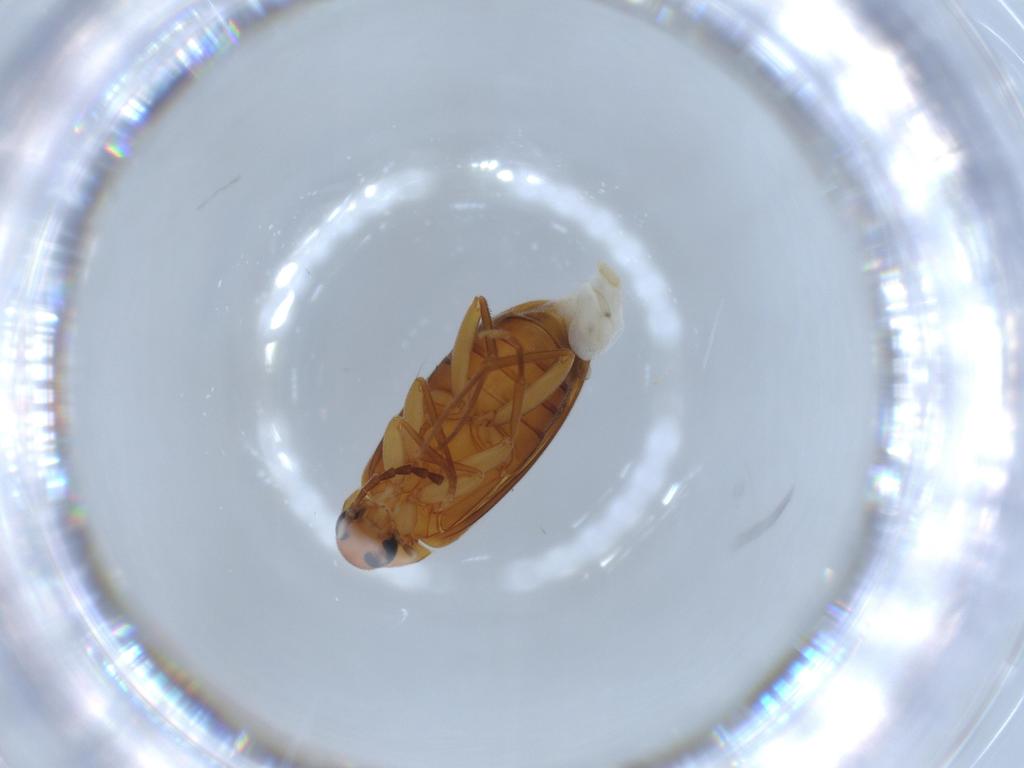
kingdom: Animalia
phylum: Arthropoda
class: Insecta
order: Coleoptera
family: Scraptiidae
